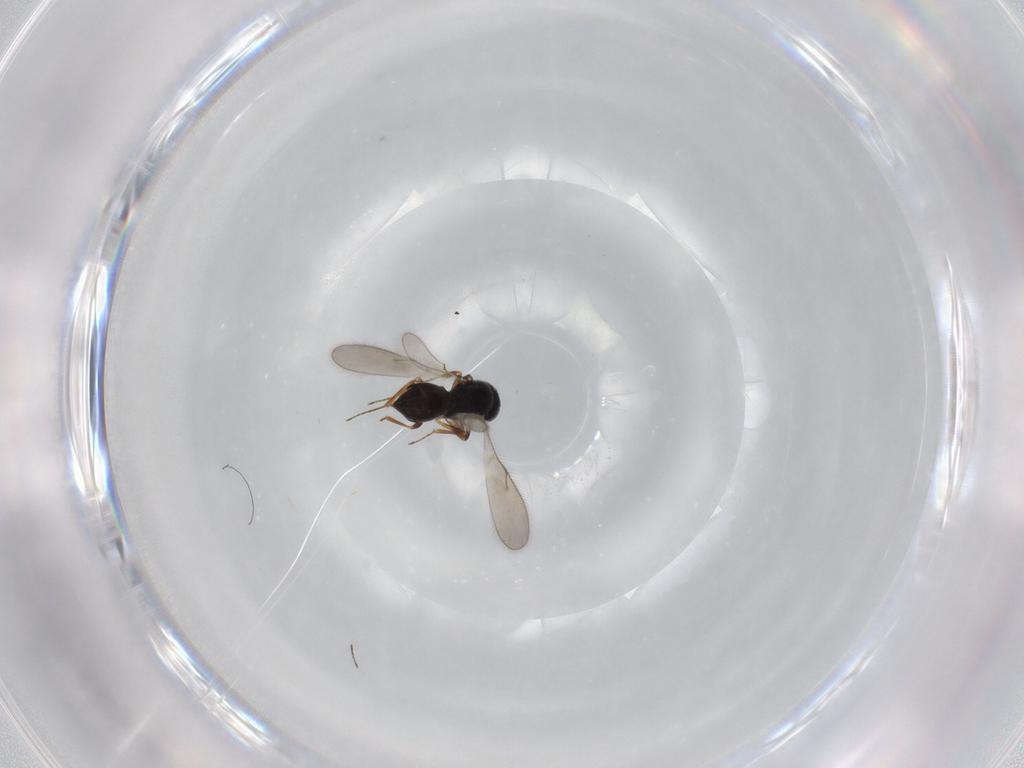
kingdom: Animalia
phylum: Arthropoda
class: Insecta
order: Hymenoptera
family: Scelionidae
